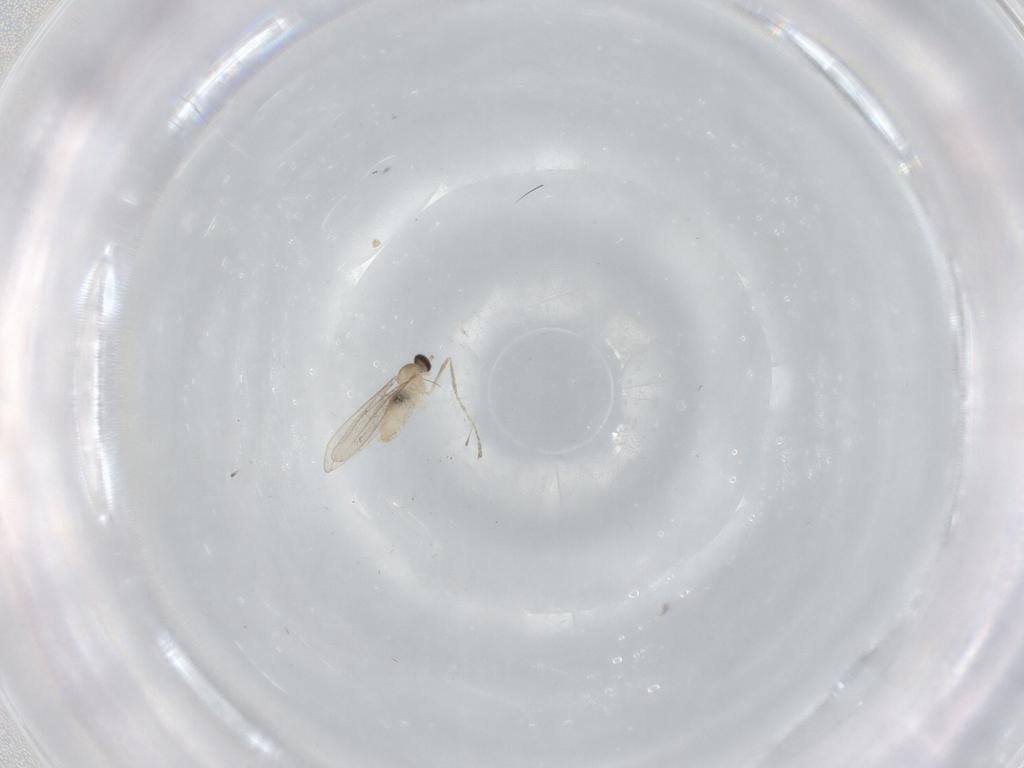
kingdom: Animalia
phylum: Arthropoda
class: Insecta
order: Diptera
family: Cecidomyiidae
